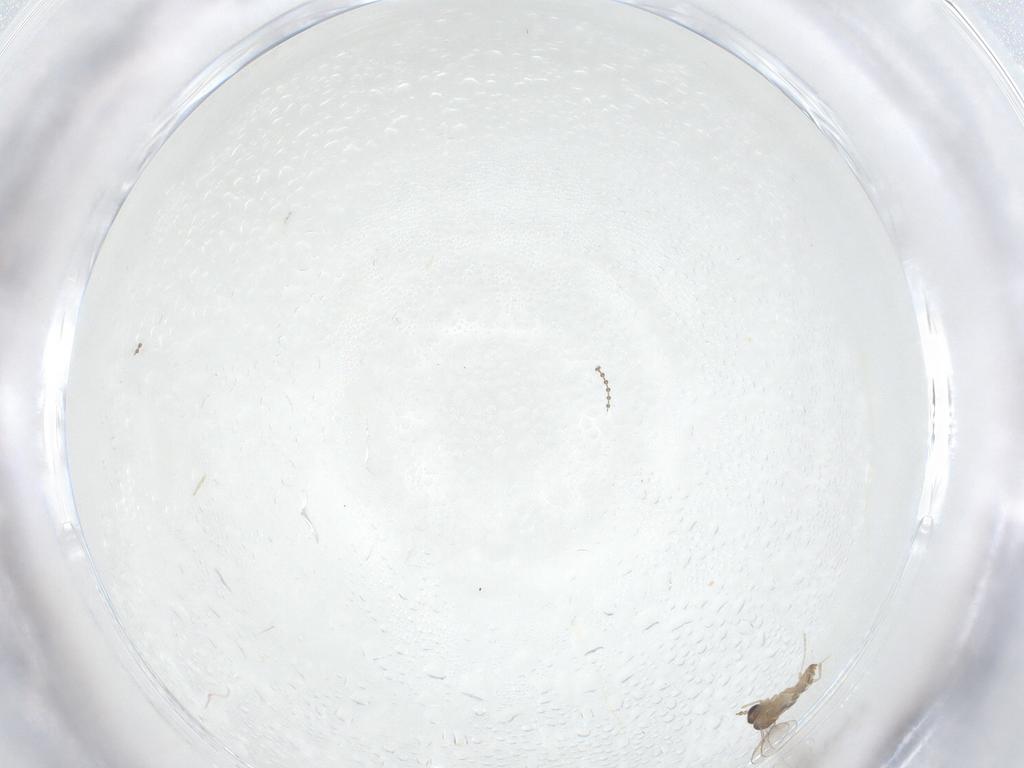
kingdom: Animalia
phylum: Arthropoda
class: Insecta
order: Diptera
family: Cecidomyiidae
